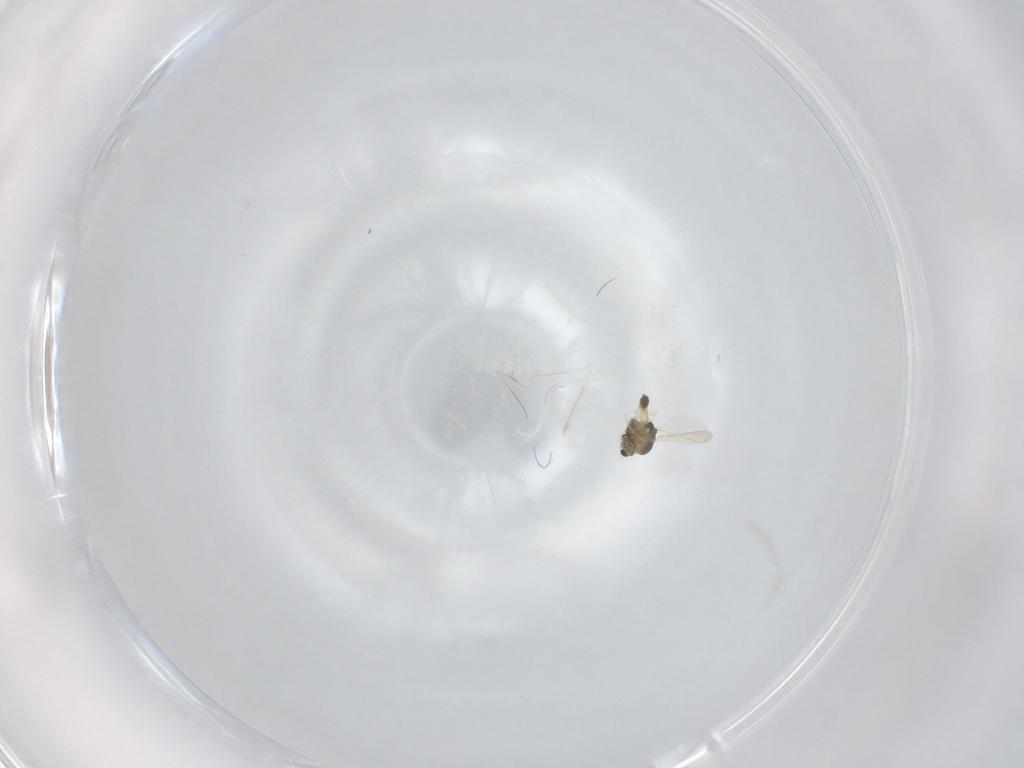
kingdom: Animalia
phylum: Arthropoda
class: Insecta
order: Diptera
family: Chironomidae
